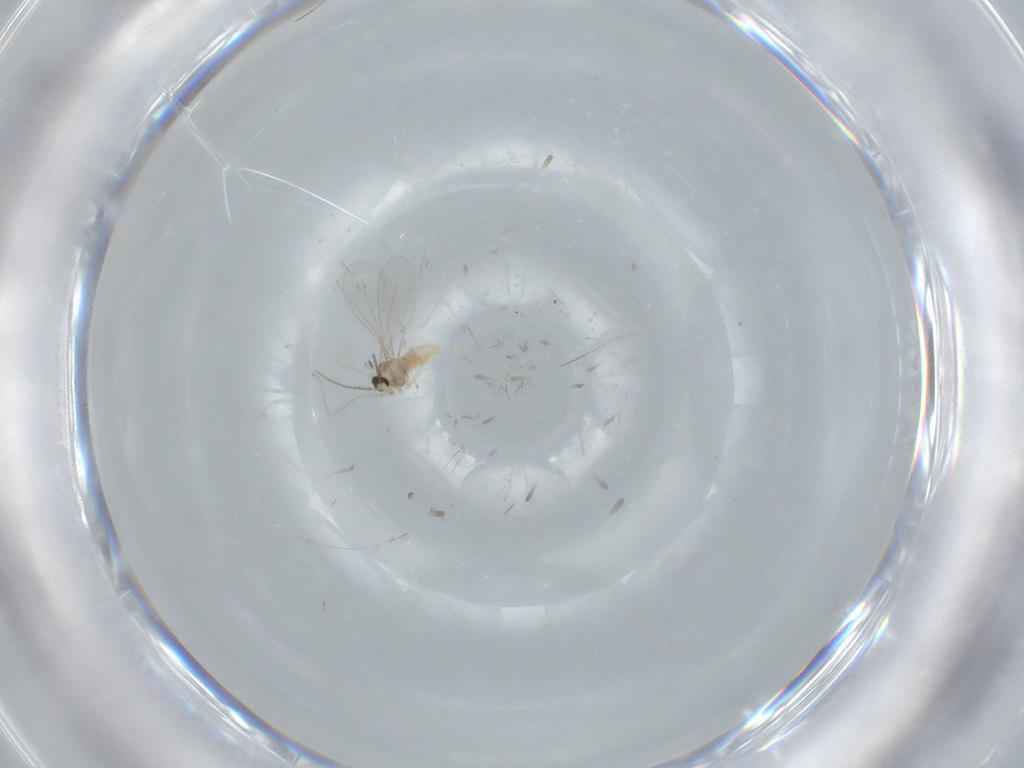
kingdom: Animalia
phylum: Arthropoda
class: Insecta
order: Diptera
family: Cecidomyiidae
